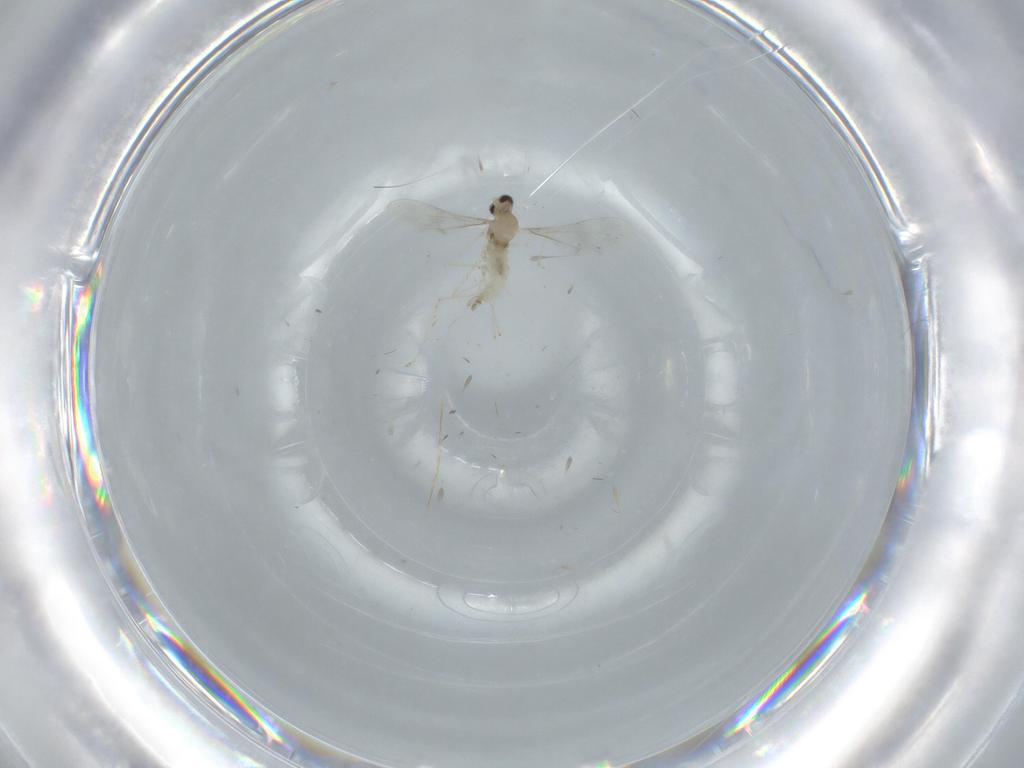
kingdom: Animalia
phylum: Arthropoda
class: Insecta
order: Diptera
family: Cecidomyiidae
